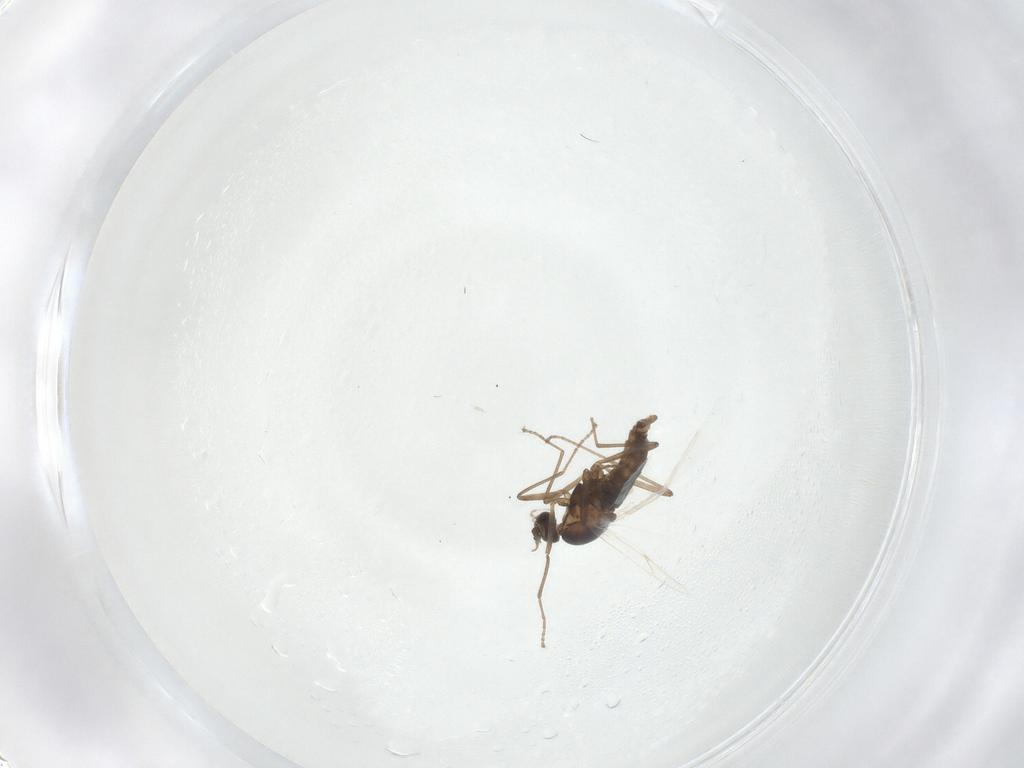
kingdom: Animalia
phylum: Arthropoda
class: Insecta
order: Diptera
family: Cecidomyiidae
